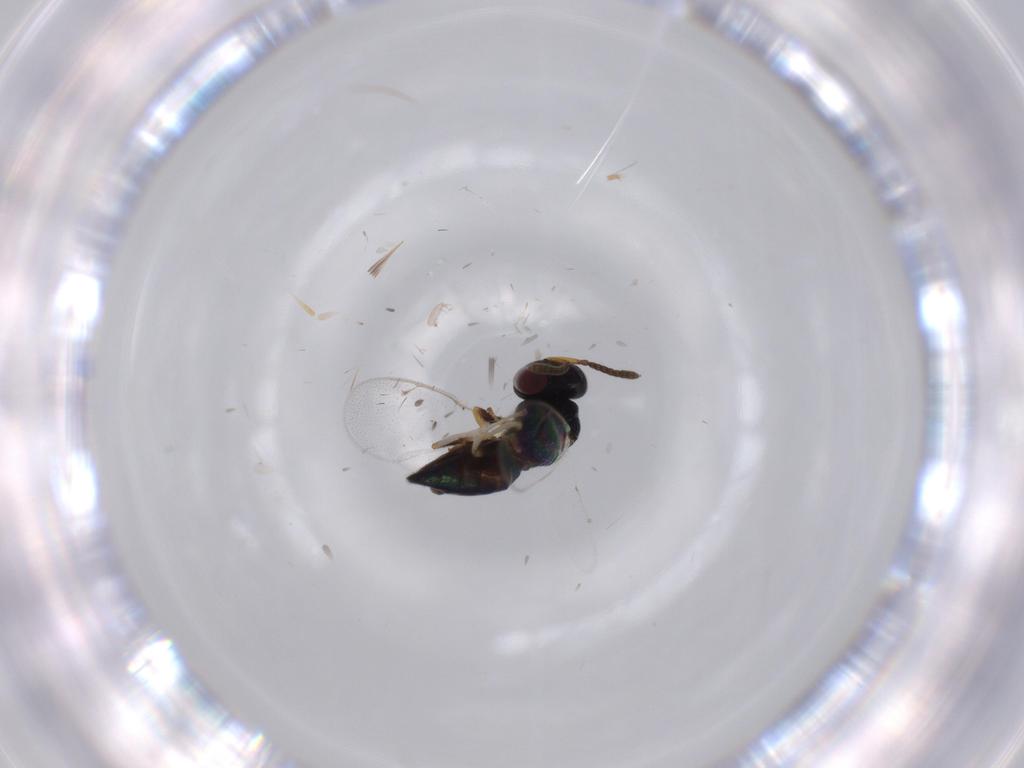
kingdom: Animalia
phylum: Arthropoda
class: Insecta
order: Hymenoptera
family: Pteromalidae
